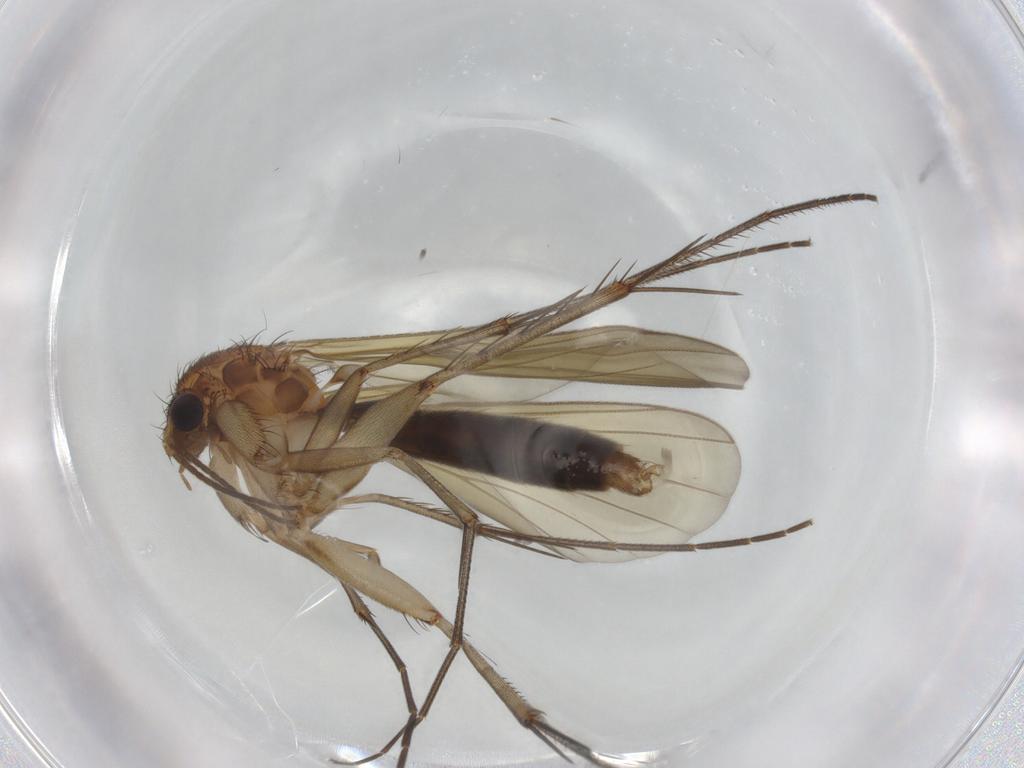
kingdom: Animalia
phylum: Arthropoda
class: Insecta
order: Diptera
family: Mycetophilidae
